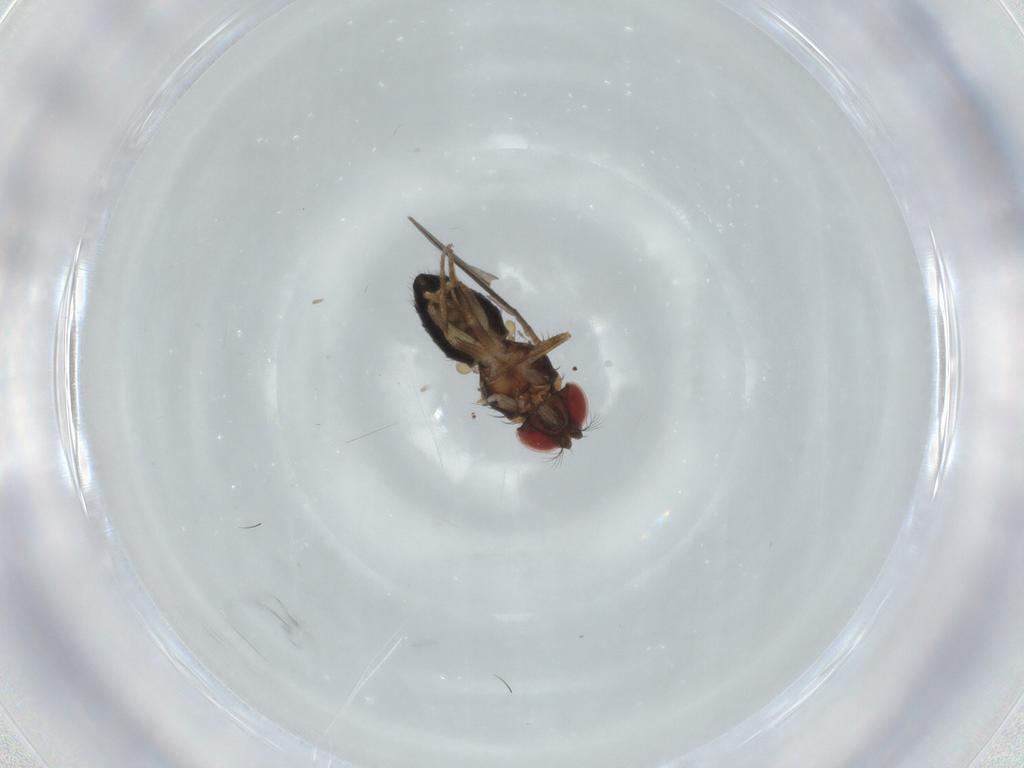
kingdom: Animalia
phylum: Arthropoda
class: Insecta
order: Diptera
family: Drosophilidae
